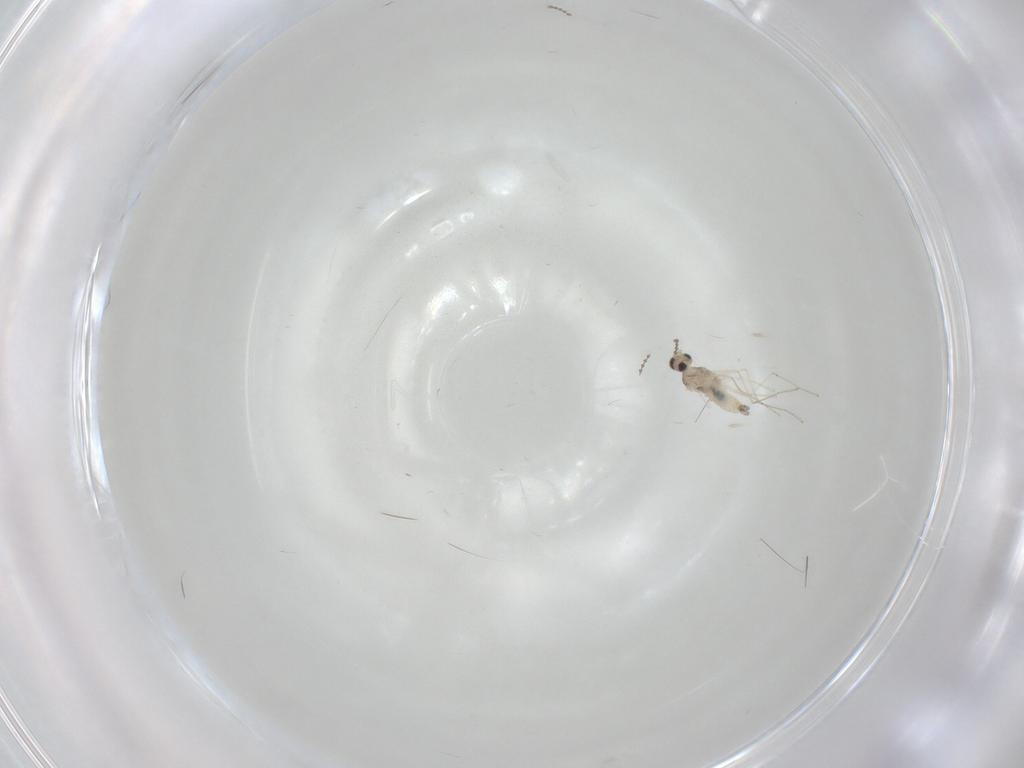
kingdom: Animalia
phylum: Arthropoda
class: Insecta
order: Diptera
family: Cecidomyiidae
